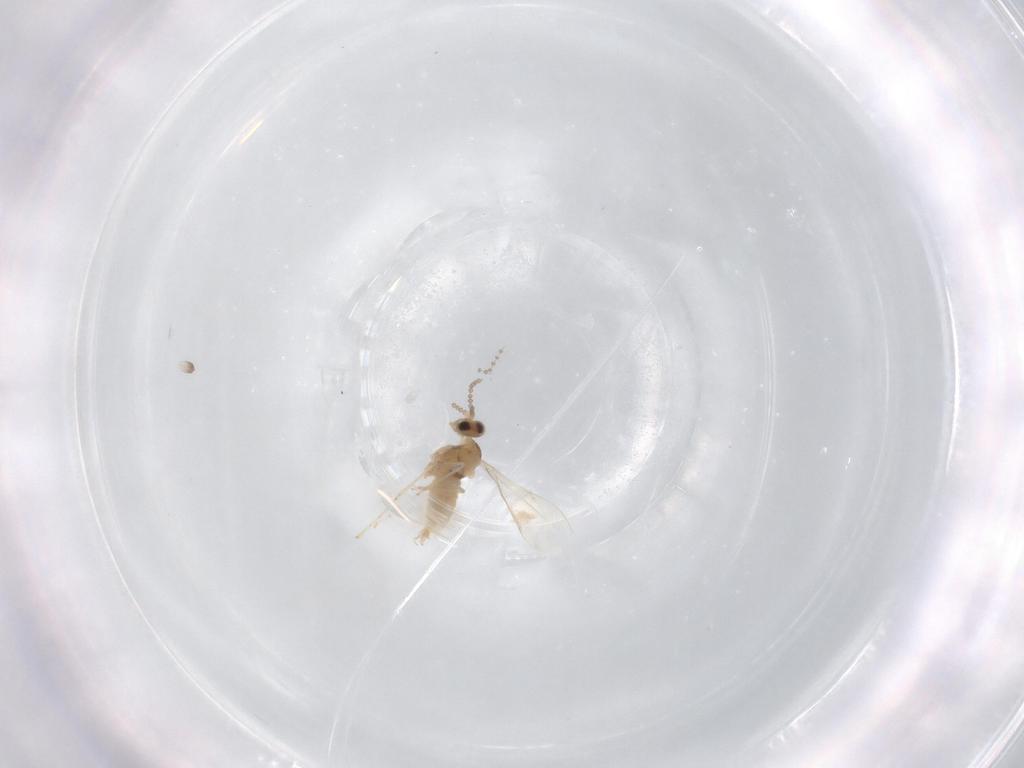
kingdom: Animalia
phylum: Arthropoda
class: Insecta
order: Diptera
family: Cecidomyiidae
